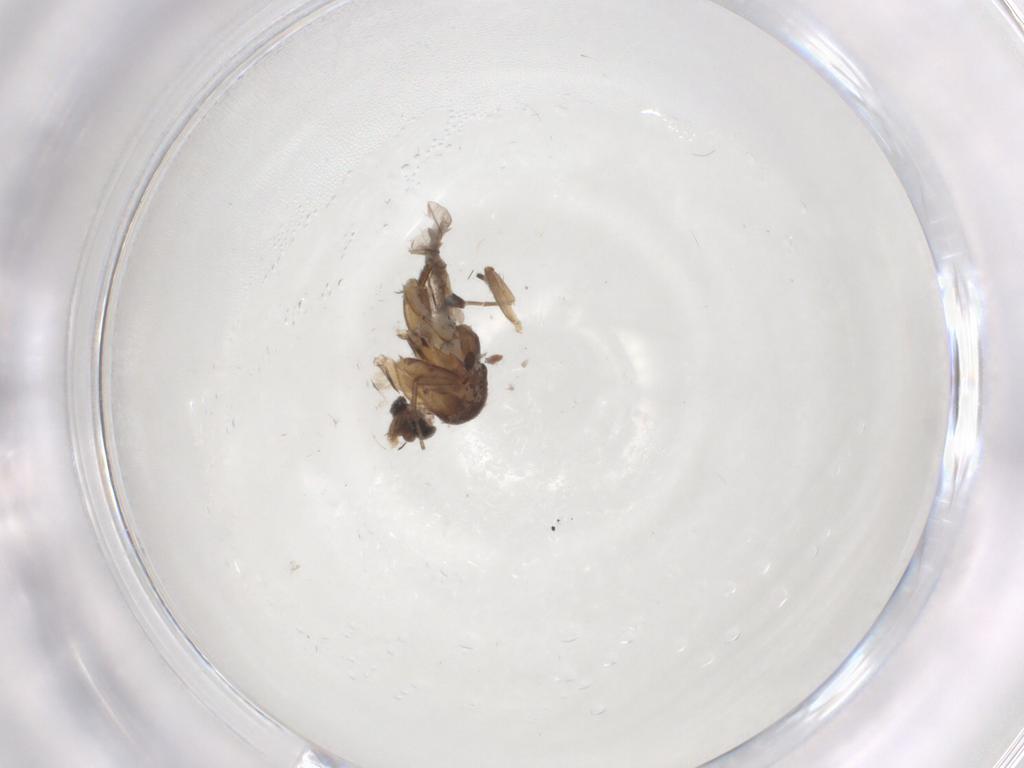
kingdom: Animalia
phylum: Arthropoda
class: Insecta
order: Diptera
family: Phoridae
